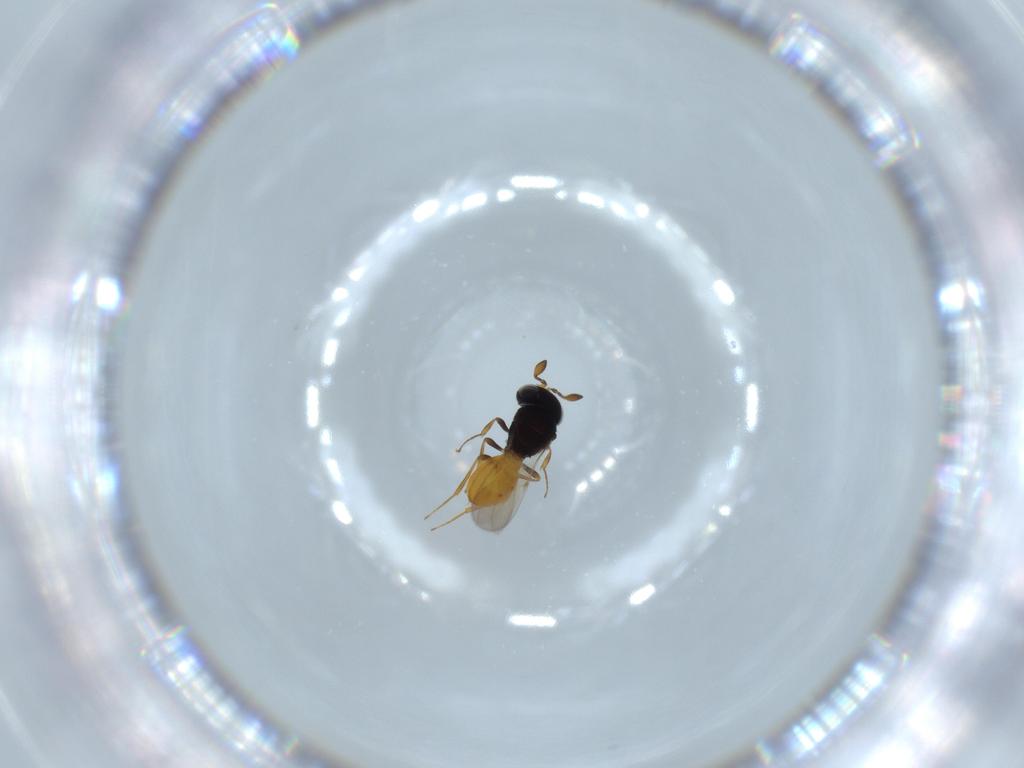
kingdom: Animalia
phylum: Arthropoda
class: Insecta
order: Hymenoptera
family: Scelionidae
